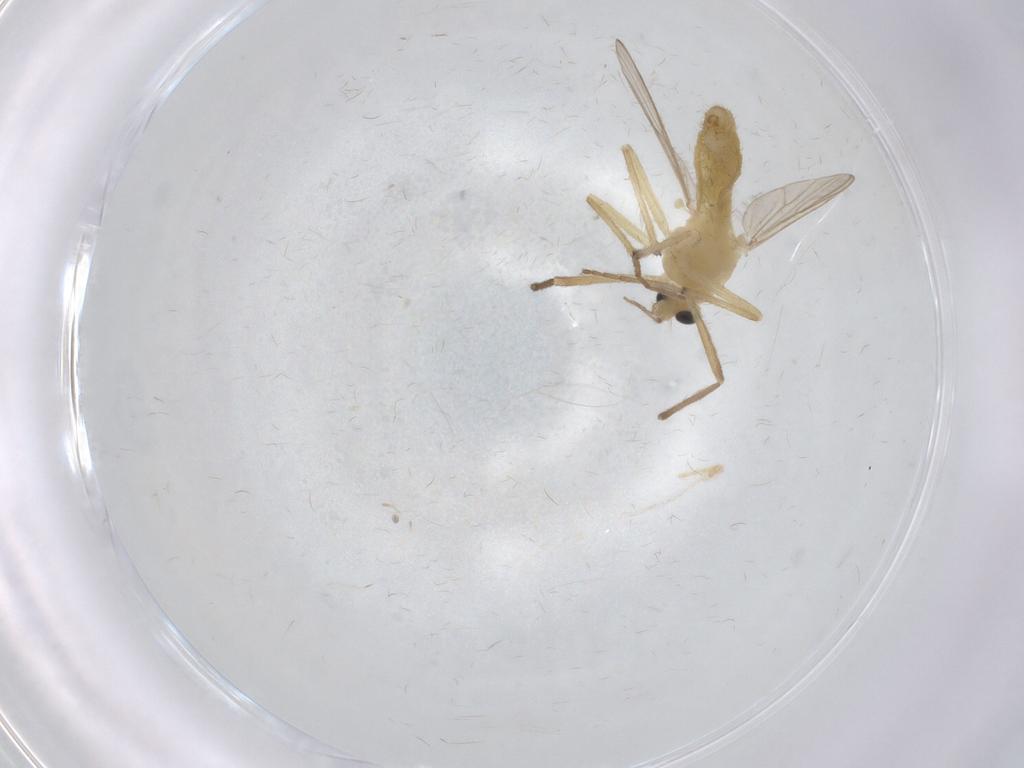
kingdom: Animalia
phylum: Arthropoda
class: Insecta
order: Diptera
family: Chironomidae
